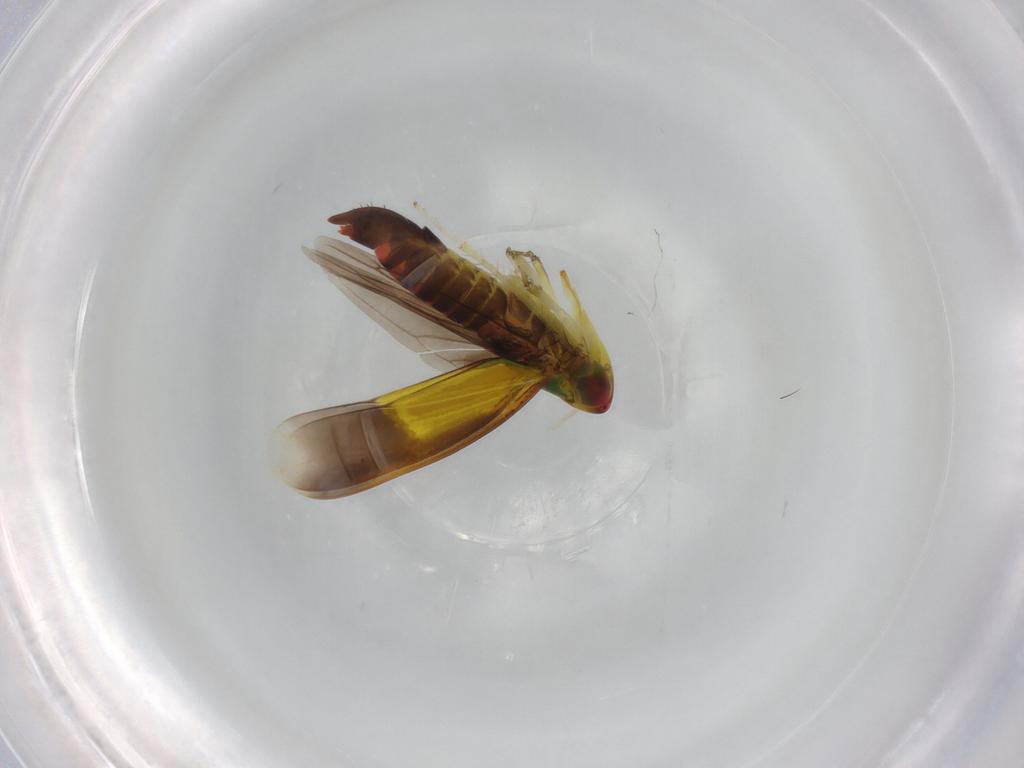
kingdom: Animalia
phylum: Arthropoda
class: Insecta
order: Hemiptera
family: Cicadellidae
